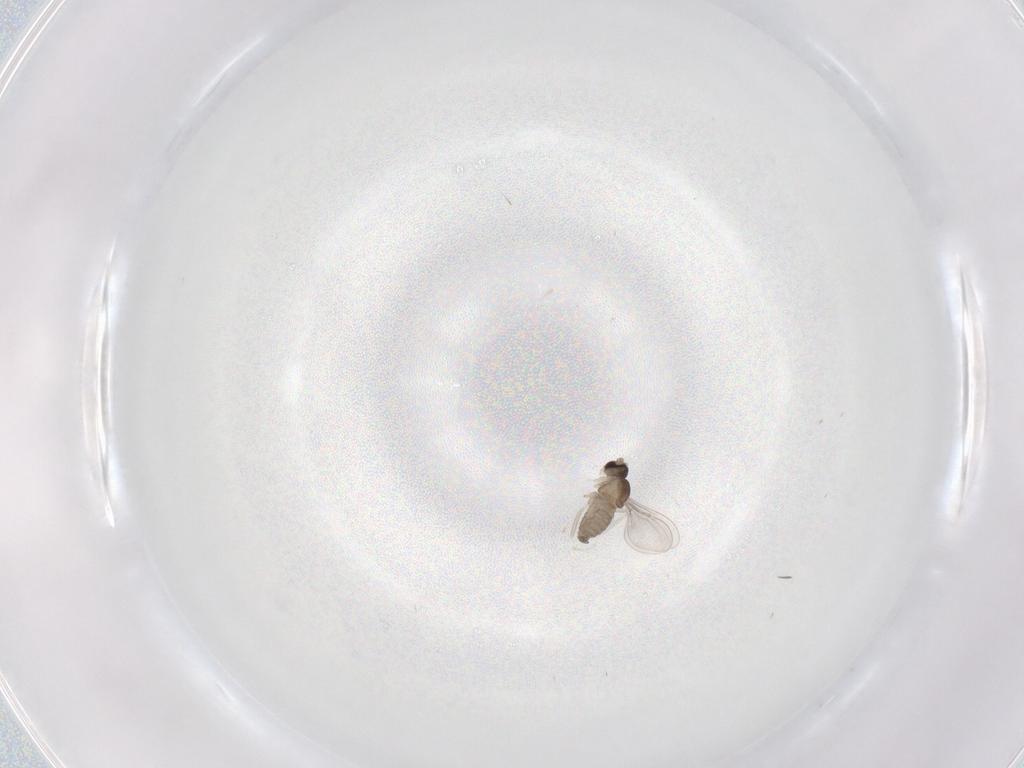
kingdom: Animalia
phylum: Arthropoda
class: Insecta
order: Diptera
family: Cecidomyiidae
